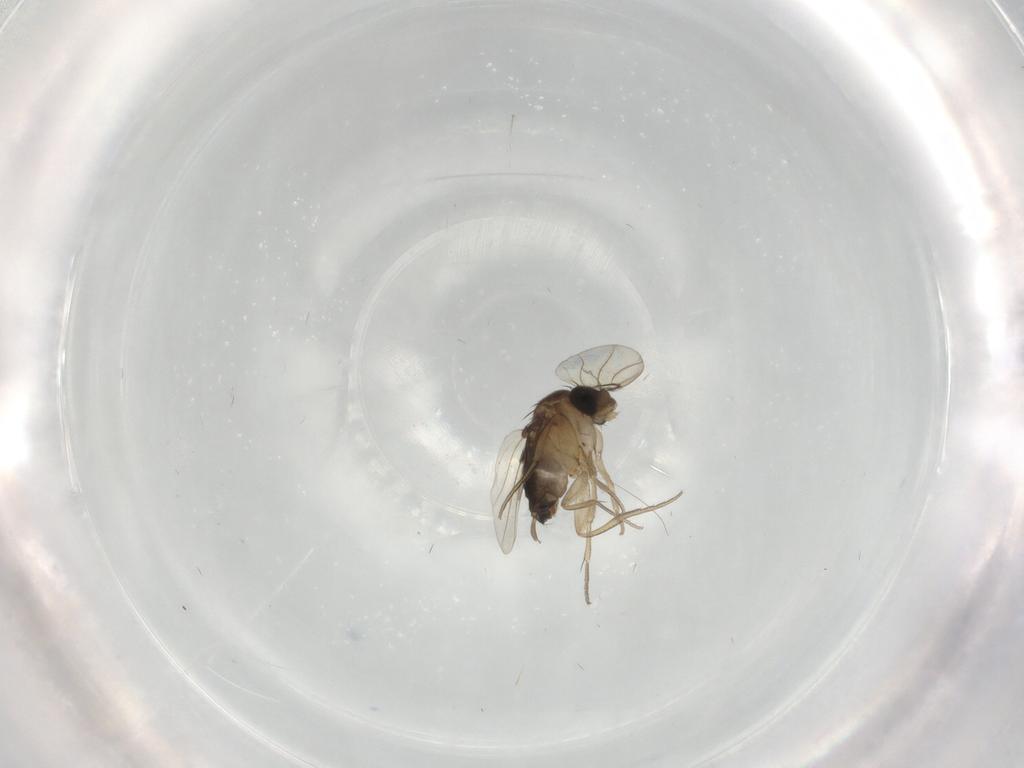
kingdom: Animalia
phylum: Arthropoda
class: Insecta
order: Diptera
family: Phoridae
